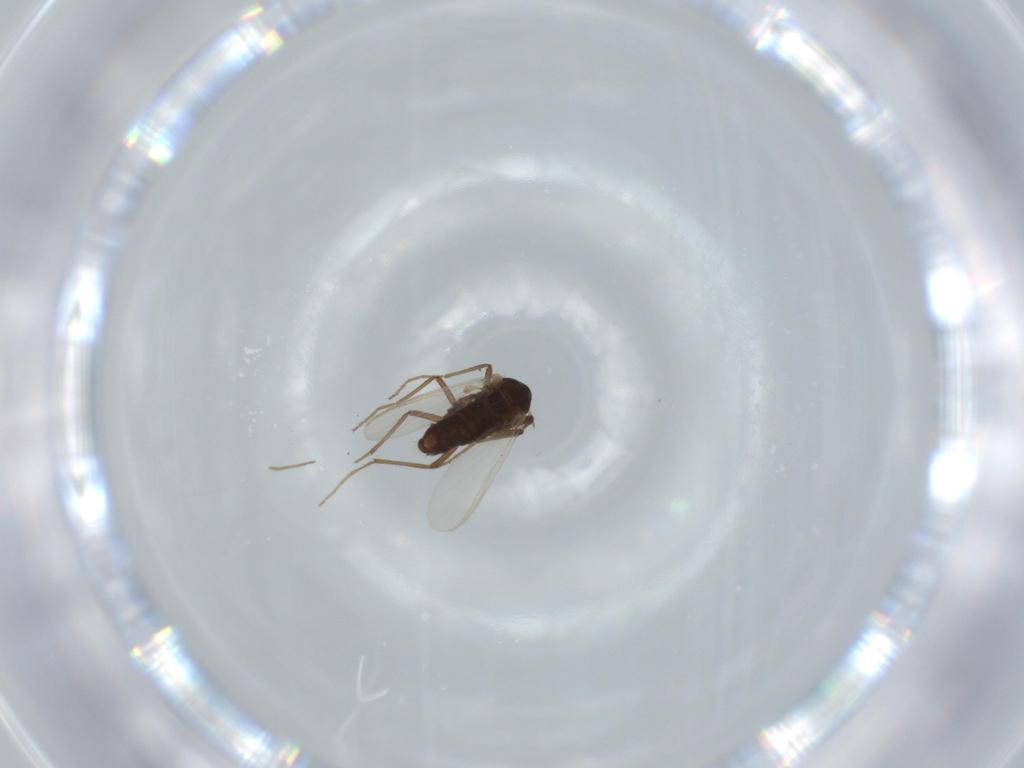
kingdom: Animalia
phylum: Arthropoda
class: Insecta
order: Diptera
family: Chironomidae
